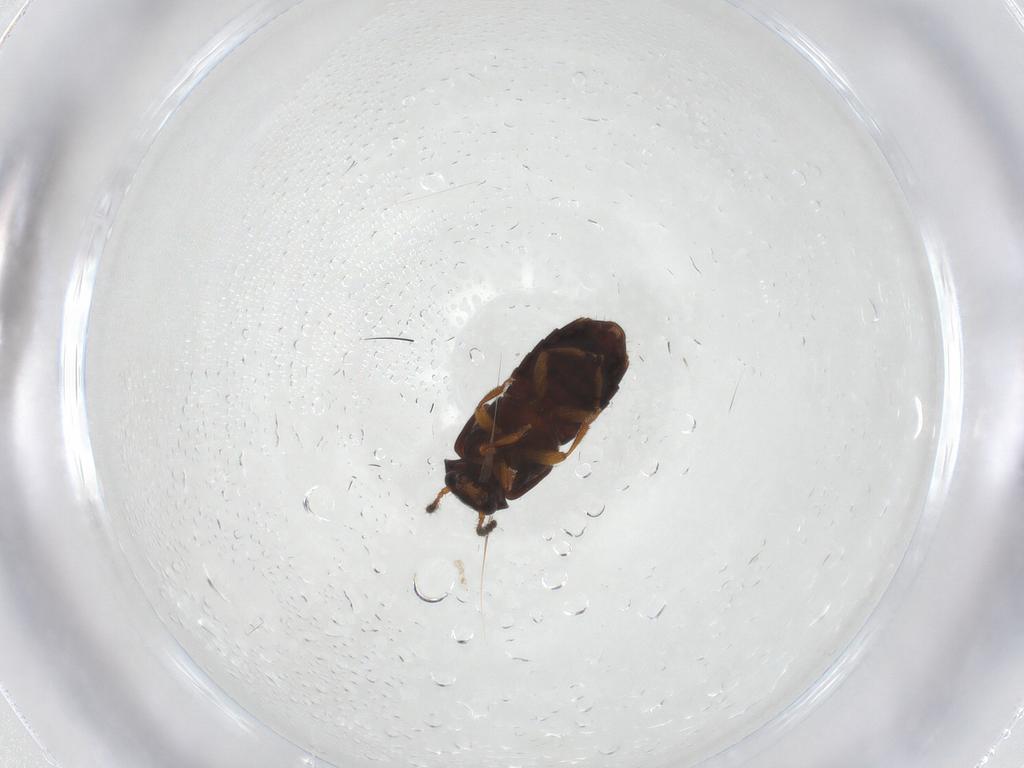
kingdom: Animalia
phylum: Arthropoda
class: Insecta
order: Coleoptera
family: Staphylinidae
